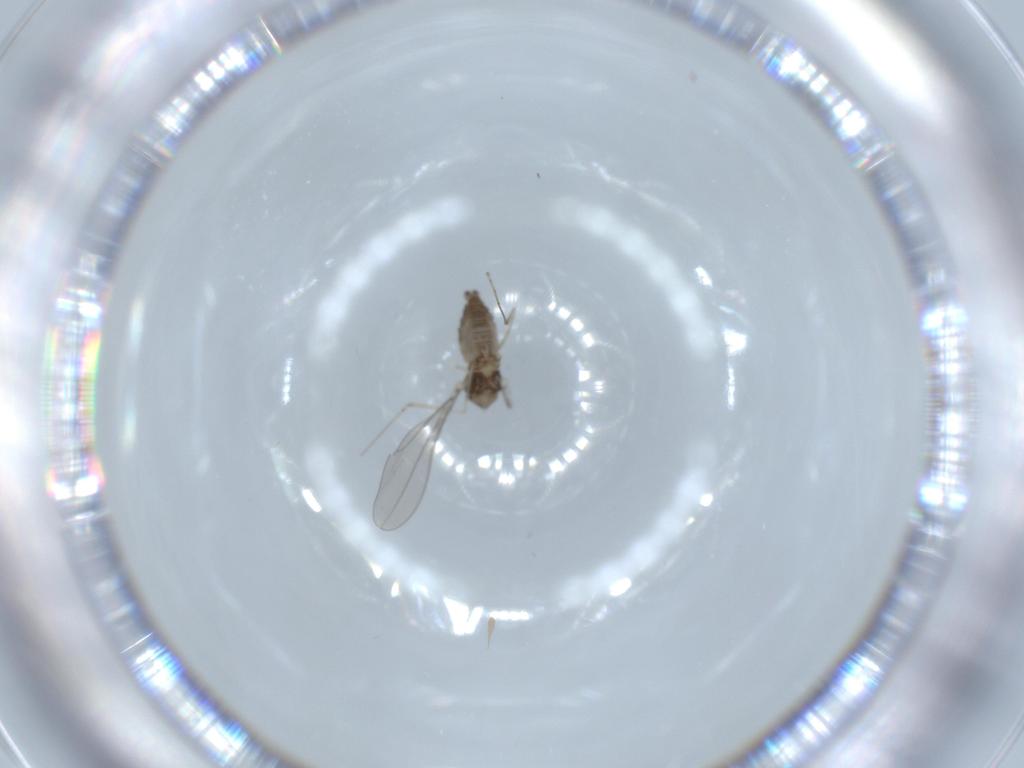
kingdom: Animalia
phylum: Arthropoda
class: Insecta
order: Diptera
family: Ceratopogonidae
